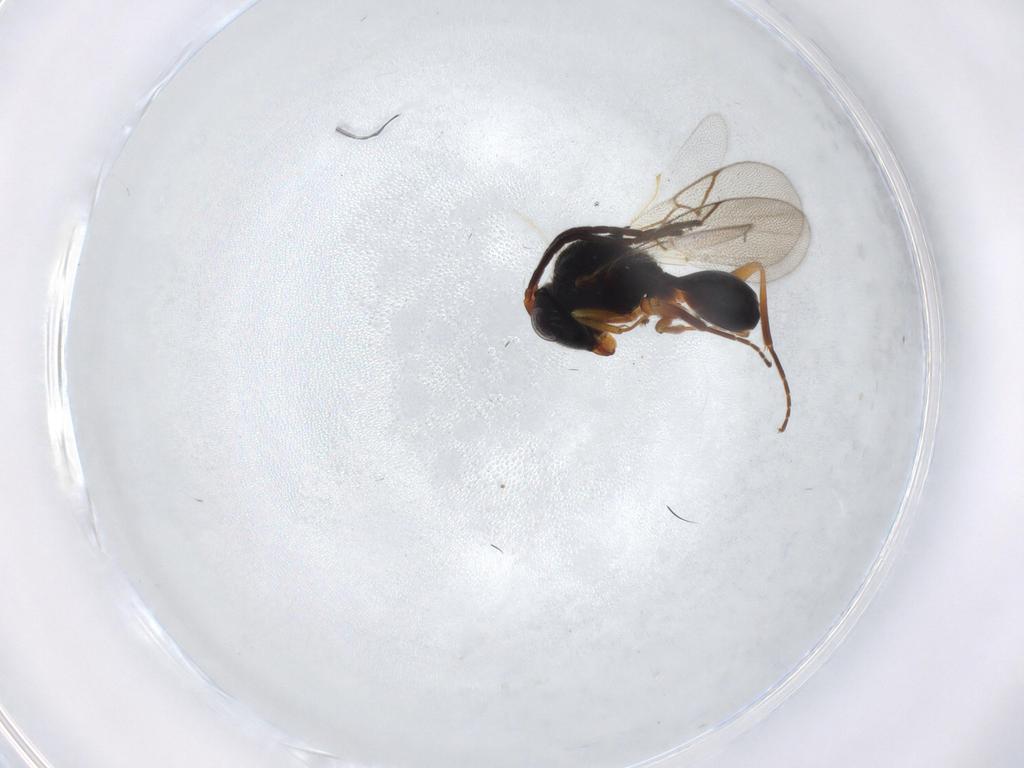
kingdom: Animalia
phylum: Arthropoda
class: Insecta
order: Hymenoptera
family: Figitidae
